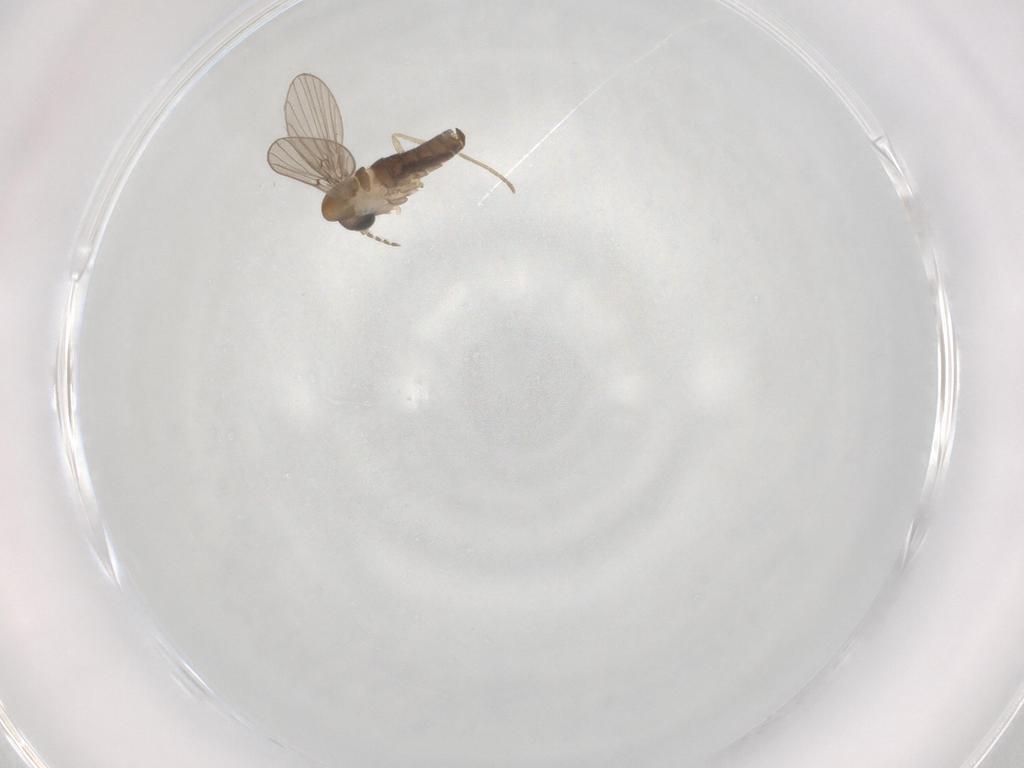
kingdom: Animalia
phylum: Arthropoda
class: Insecta
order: Diptera
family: Psychodidae
